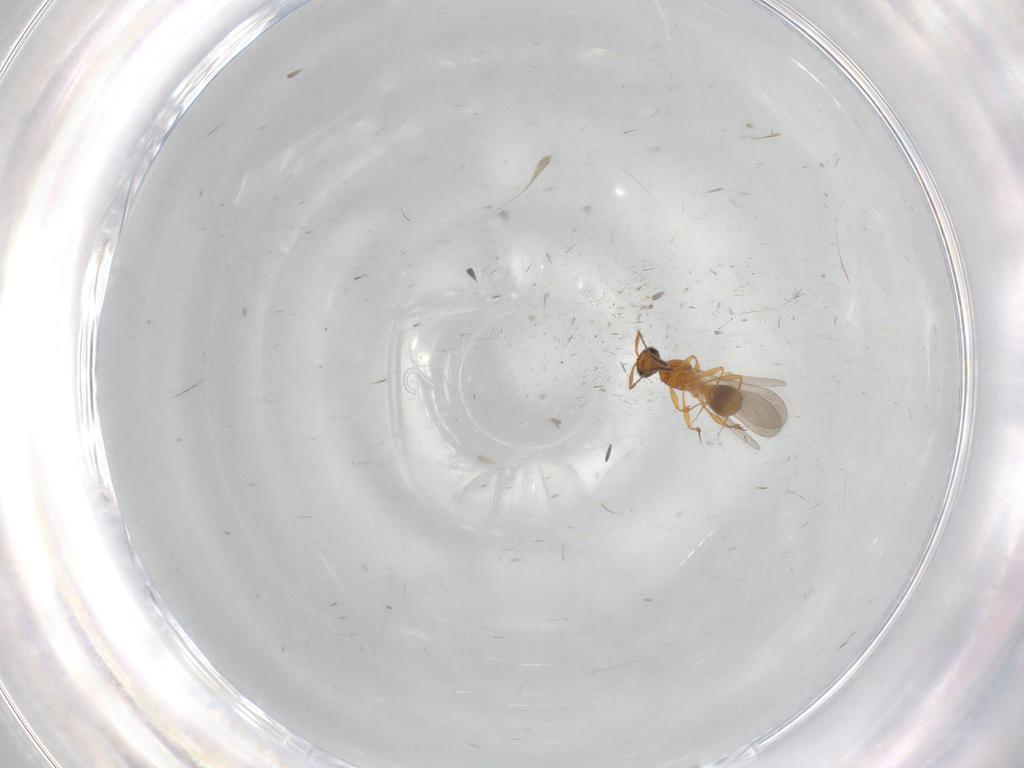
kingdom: Animalia
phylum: Arthropoda
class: Insecta
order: Hymenoptera
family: Platygastridae
